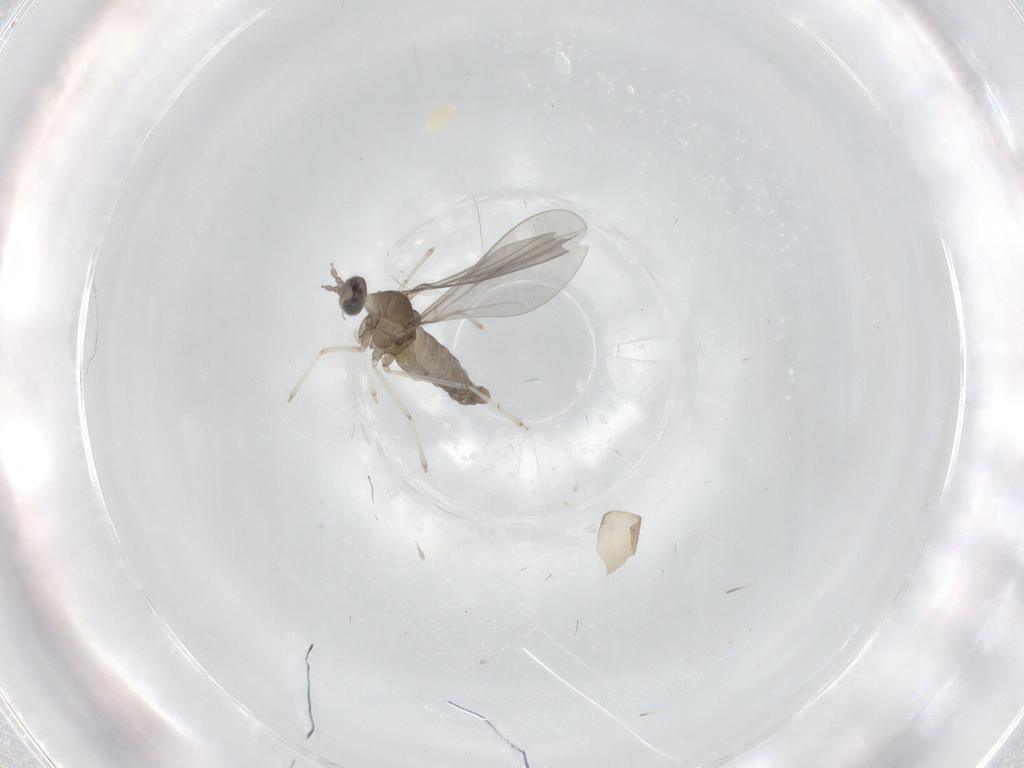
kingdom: Animalia
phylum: Arthropoda
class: Insecta
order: Diptera
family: Cecidomyiidae
